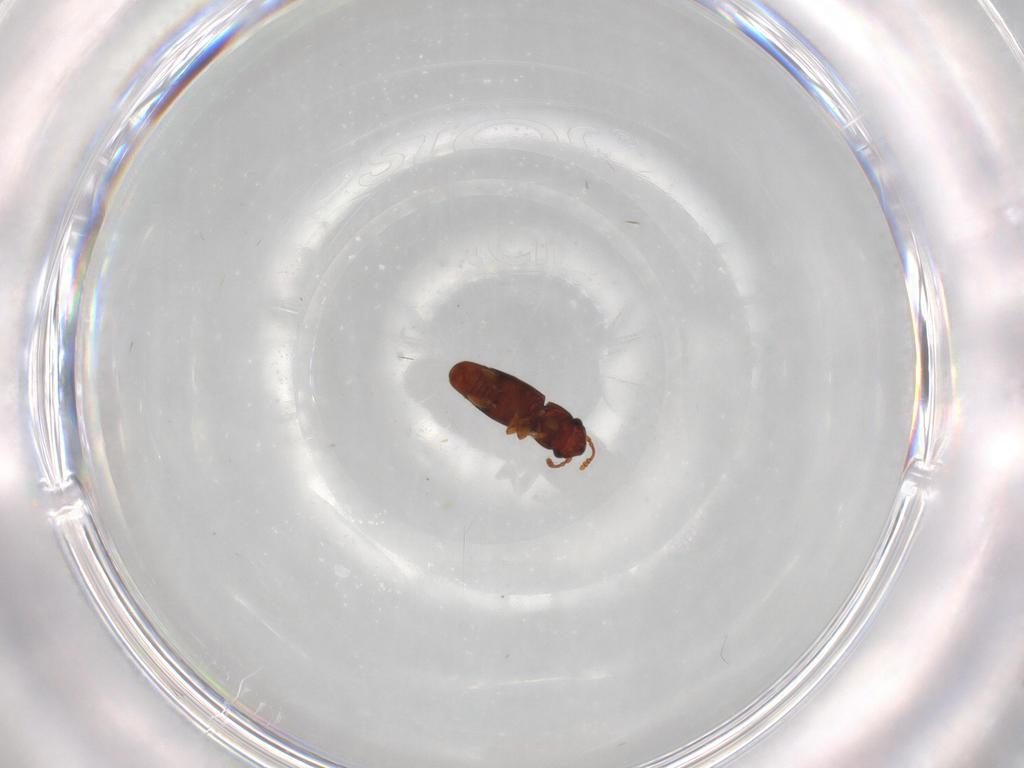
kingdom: Animalia
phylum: Arthropoda
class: Insecta
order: Coleoptera
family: Smicripidae
